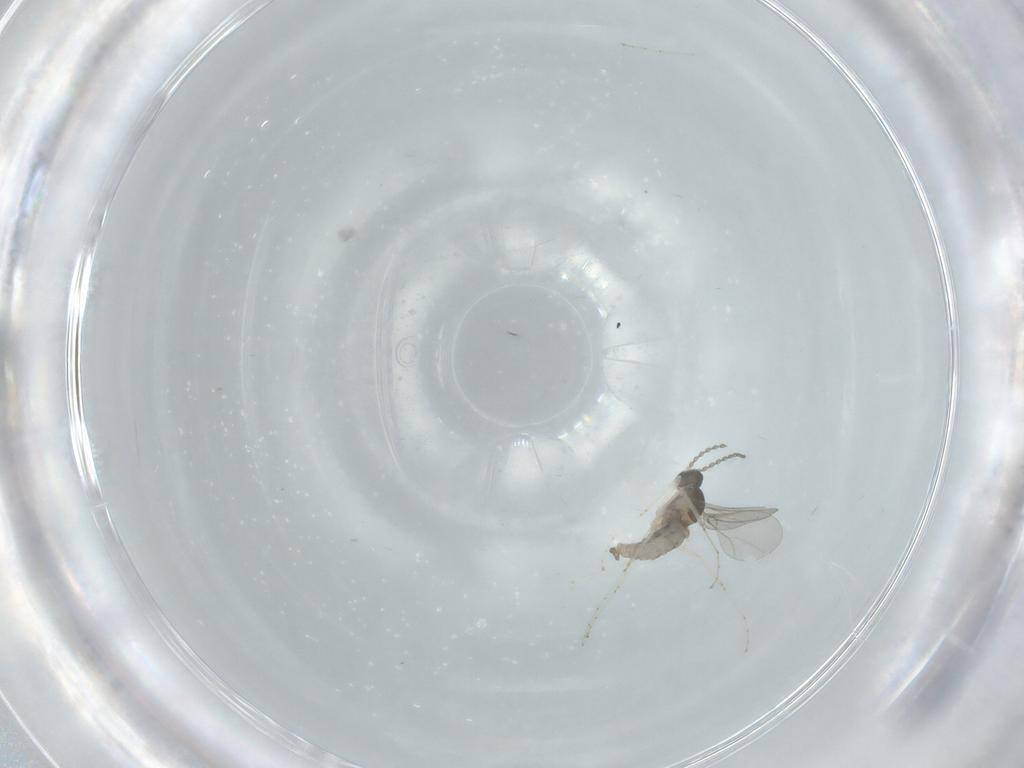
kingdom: Animalia
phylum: Arthropoda
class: Insecta
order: Diptera
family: Cecidomyiidae
